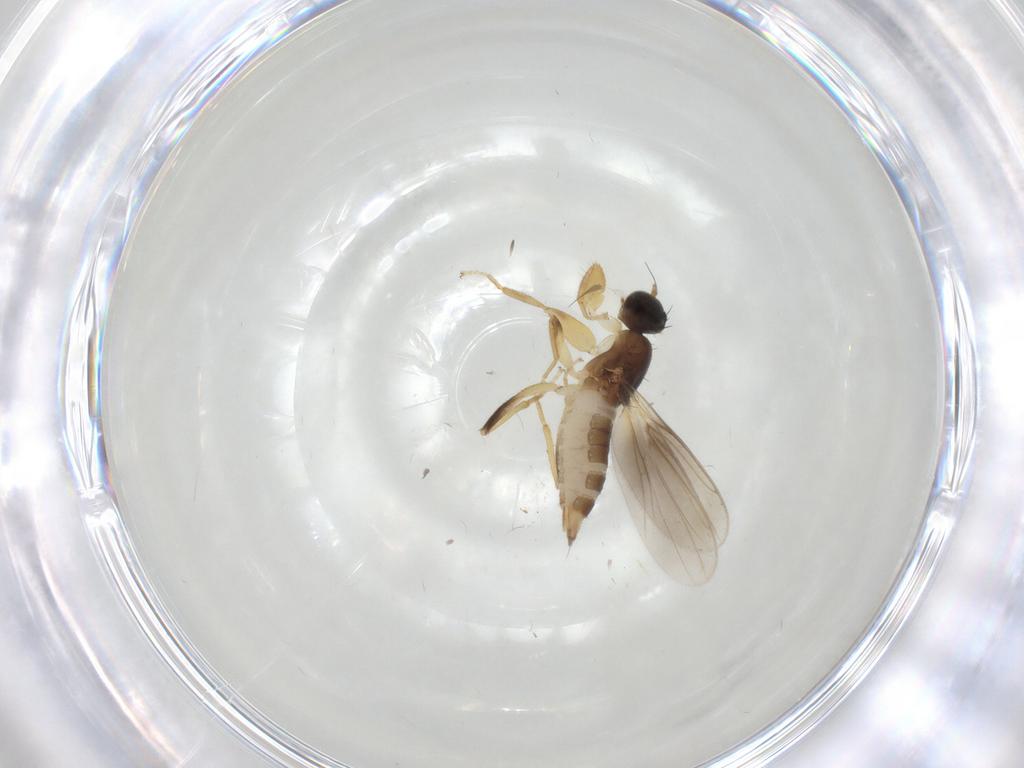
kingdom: Animalia
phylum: Arthropoda
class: Insecta
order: Diptera
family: Hybotidae
